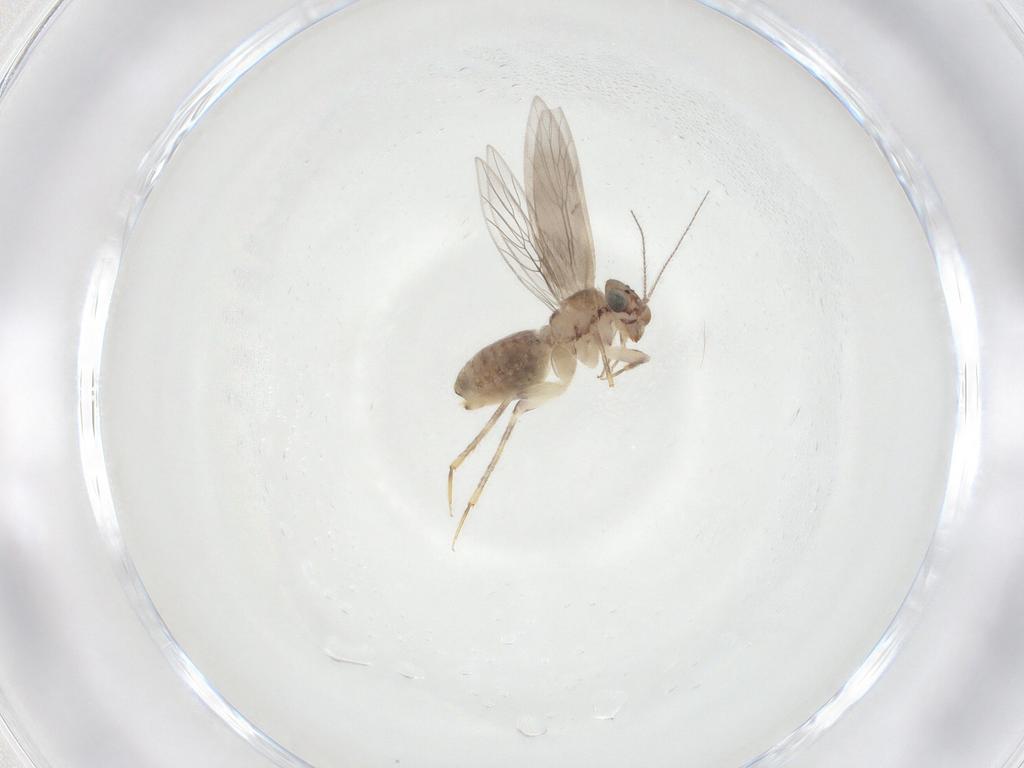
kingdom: Animalia
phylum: Arthropoda
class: Insecta
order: Psocodea
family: Lepidopsocidae
